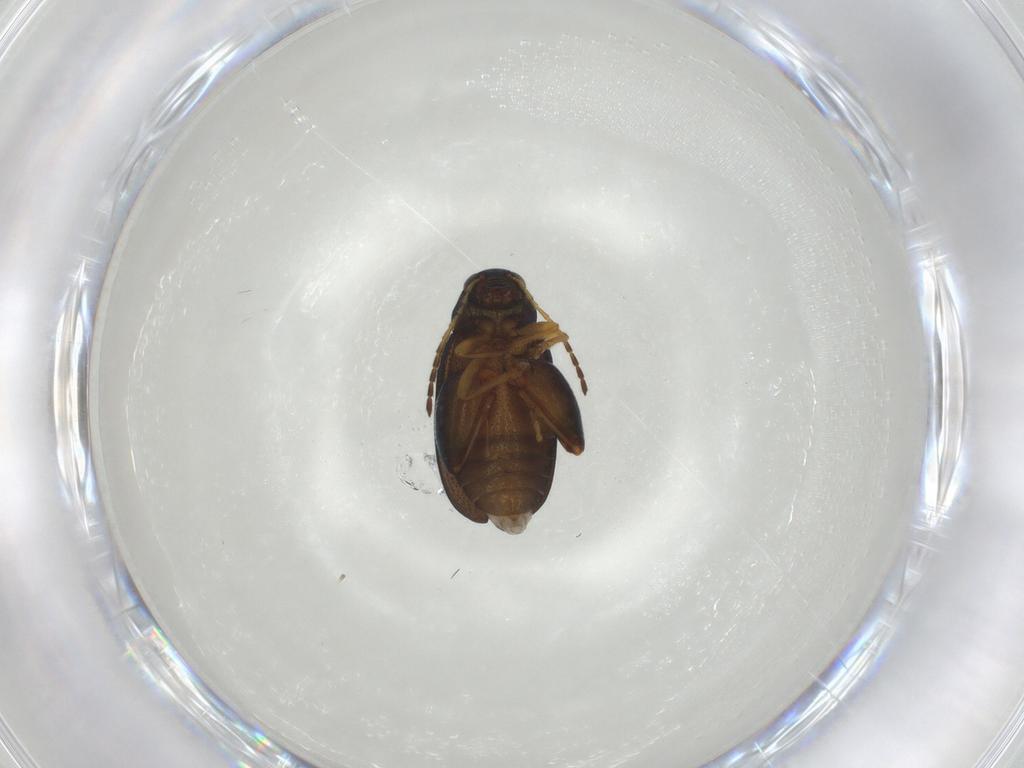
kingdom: Animalia
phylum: Arthropoda
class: Insecta
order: Coleoptera
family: Chrysomelidae
